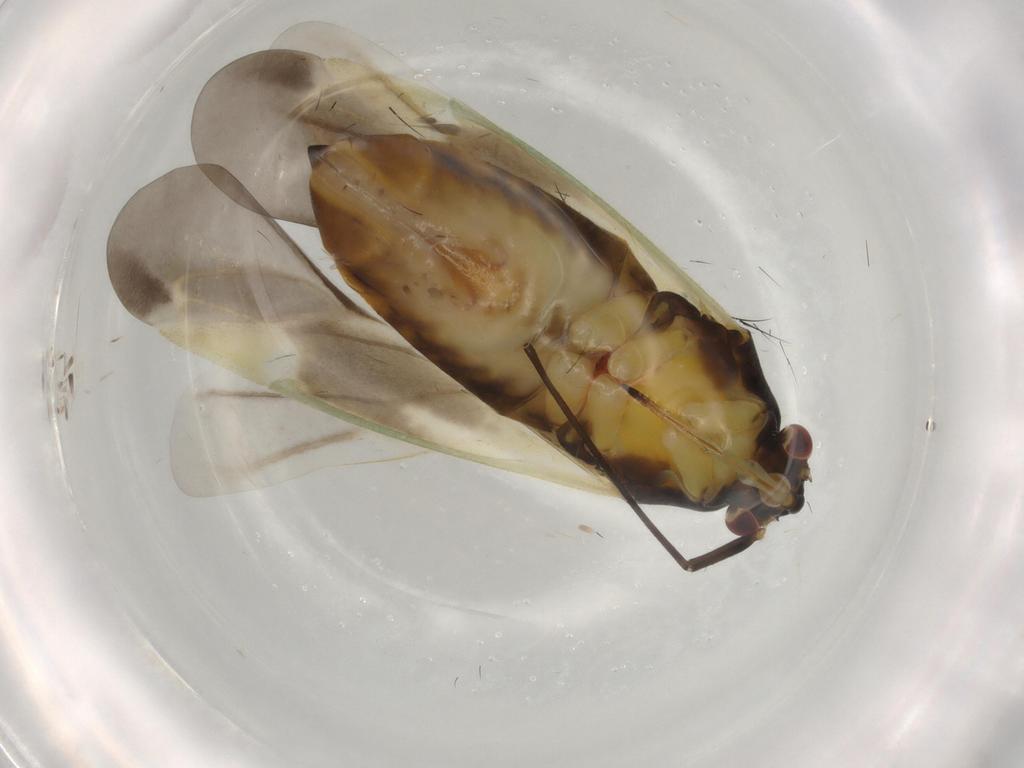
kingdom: Animalia
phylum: Arthropoda
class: Insecta
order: Hemiptera
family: Miridae
